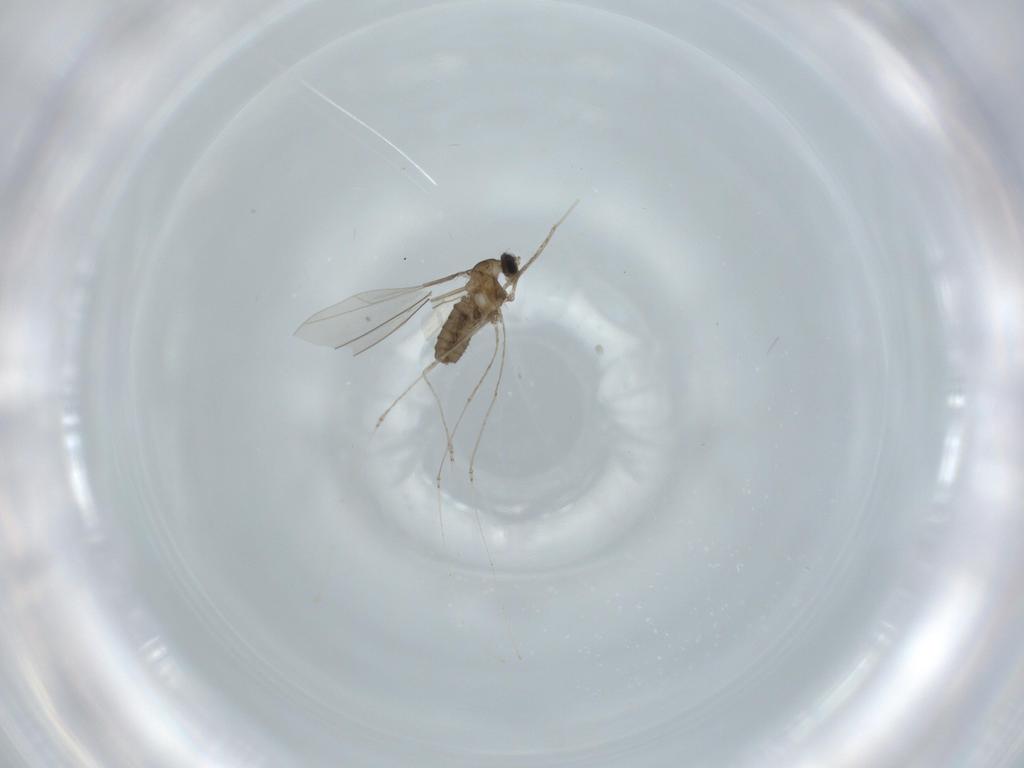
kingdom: Animalia
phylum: Arthropoda
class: Insecta
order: Diptera
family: Cecidomyiidae
